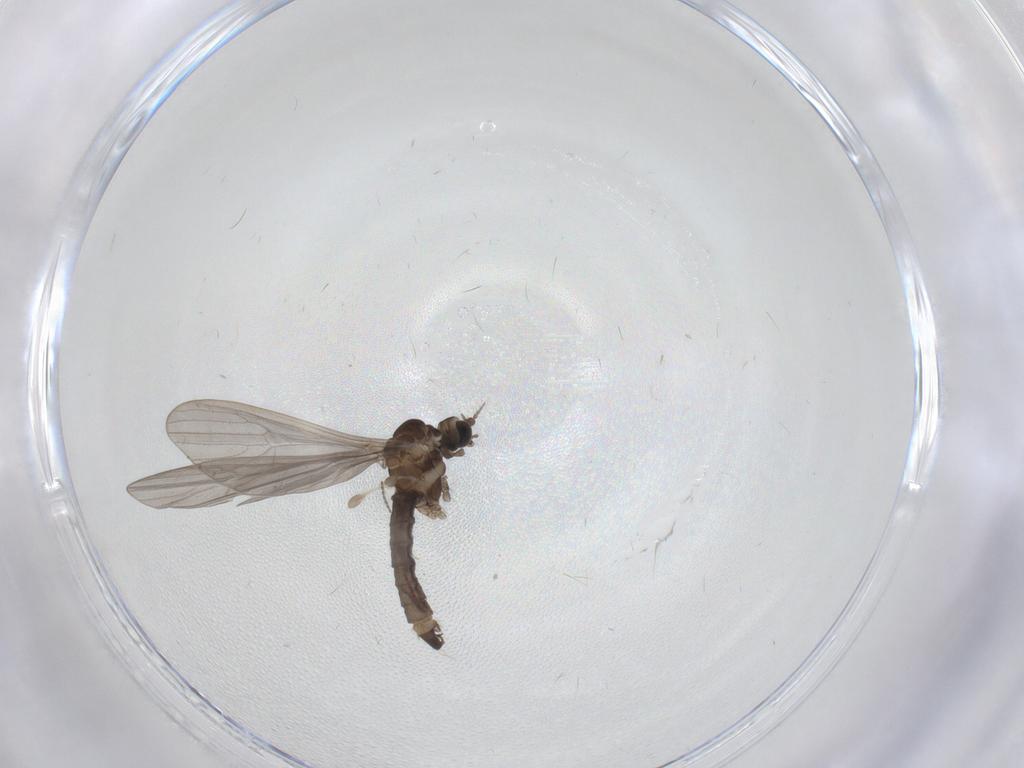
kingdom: Animalia
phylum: Arthropoda
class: Insecta
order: Diptera
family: Limoniidae
